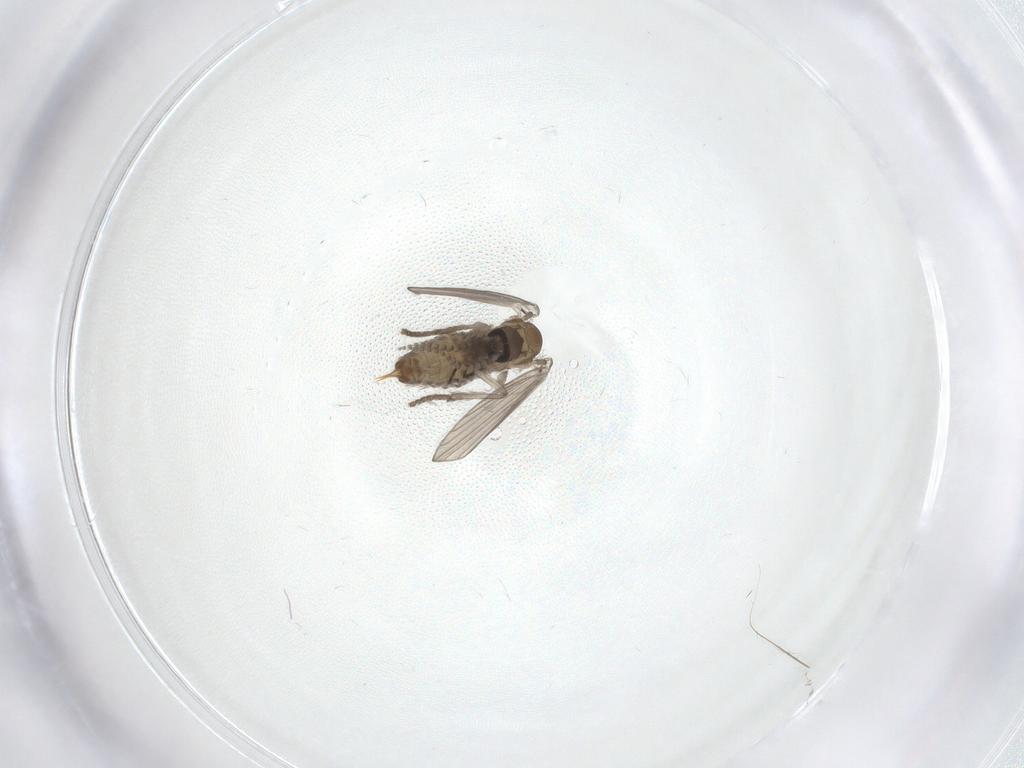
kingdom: Animalia
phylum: Arthropoda
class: Insecta
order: Diptera
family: Psychodidae
